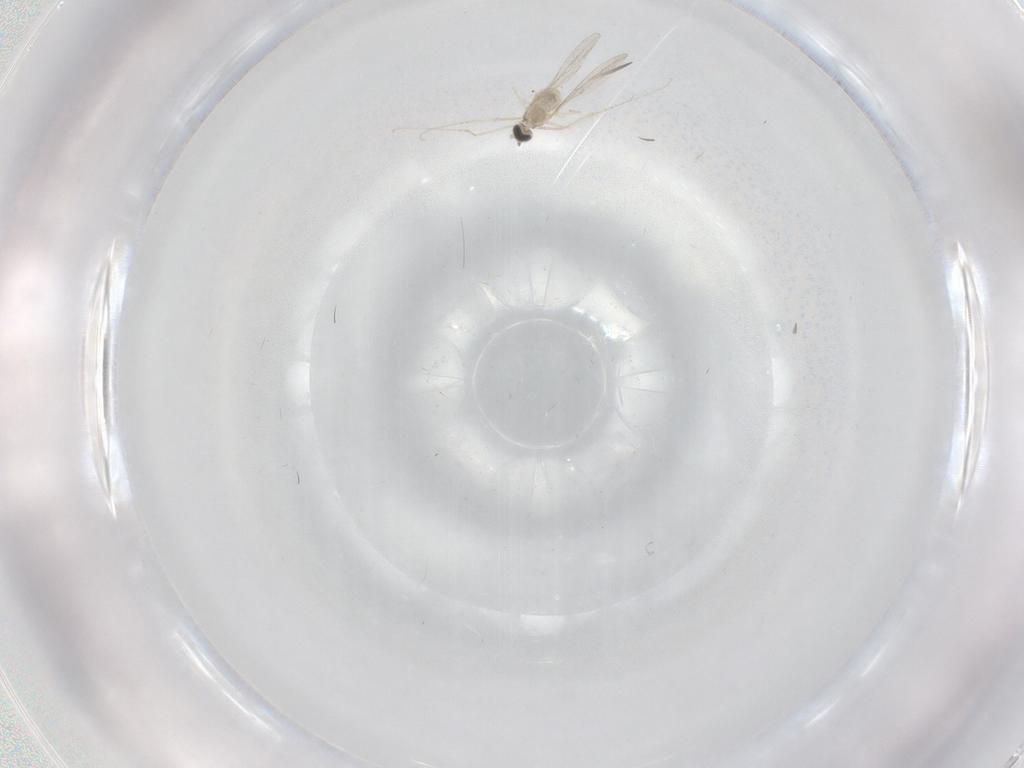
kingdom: Animalia
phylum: Arthropoda
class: Insecta
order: Diptera
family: Cecidomyiidae
